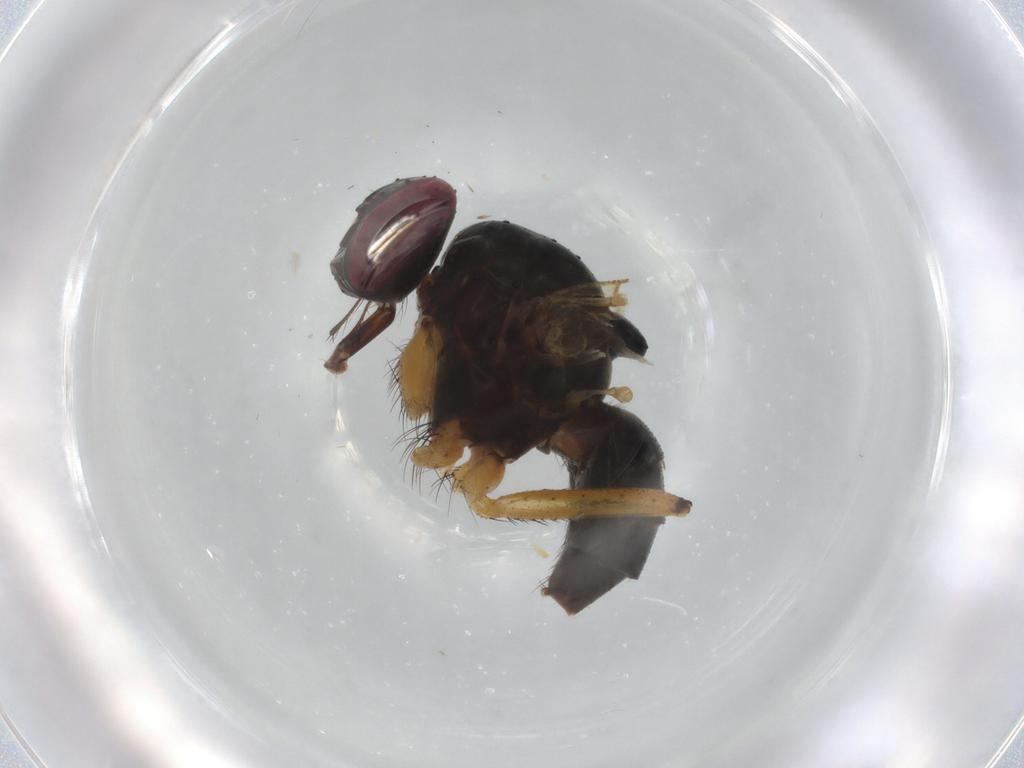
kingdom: Animalia
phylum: Arthropoda
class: Insecta
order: Diptera
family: Muscidae
